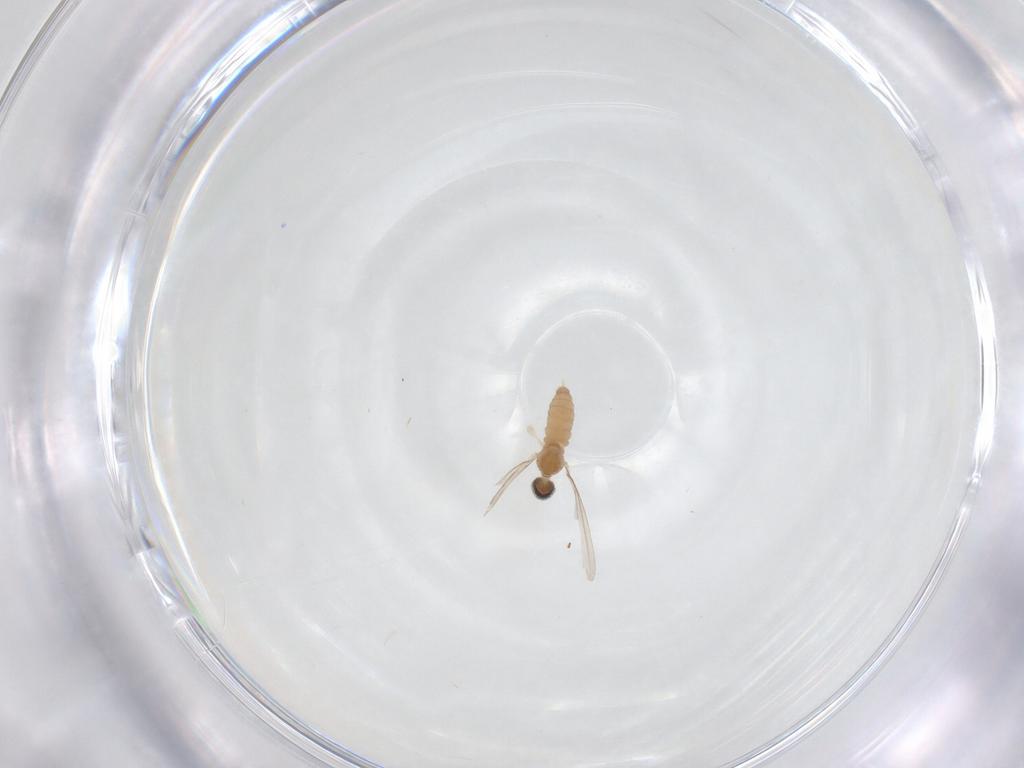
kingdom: Animalia
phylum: Arthropoda
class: Insecta
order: Diptera
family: Cecidomyiidae
